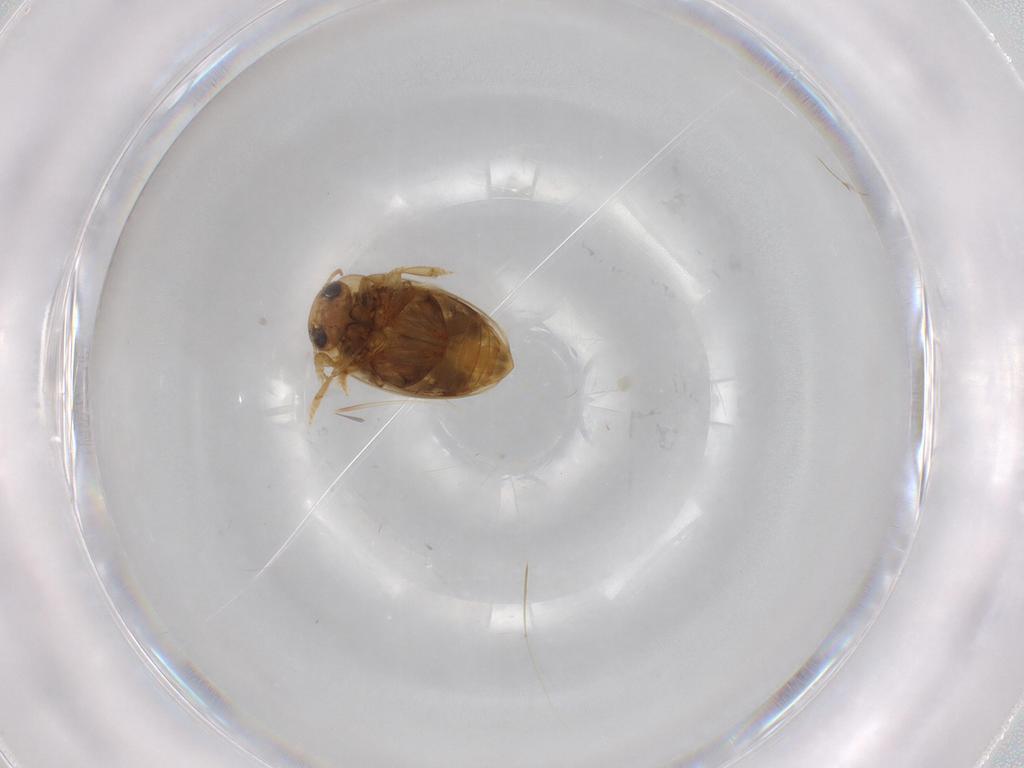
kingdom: Animalia
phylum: Arthropoda
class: Insecta
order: Coleoptera
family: Dytiscidae
